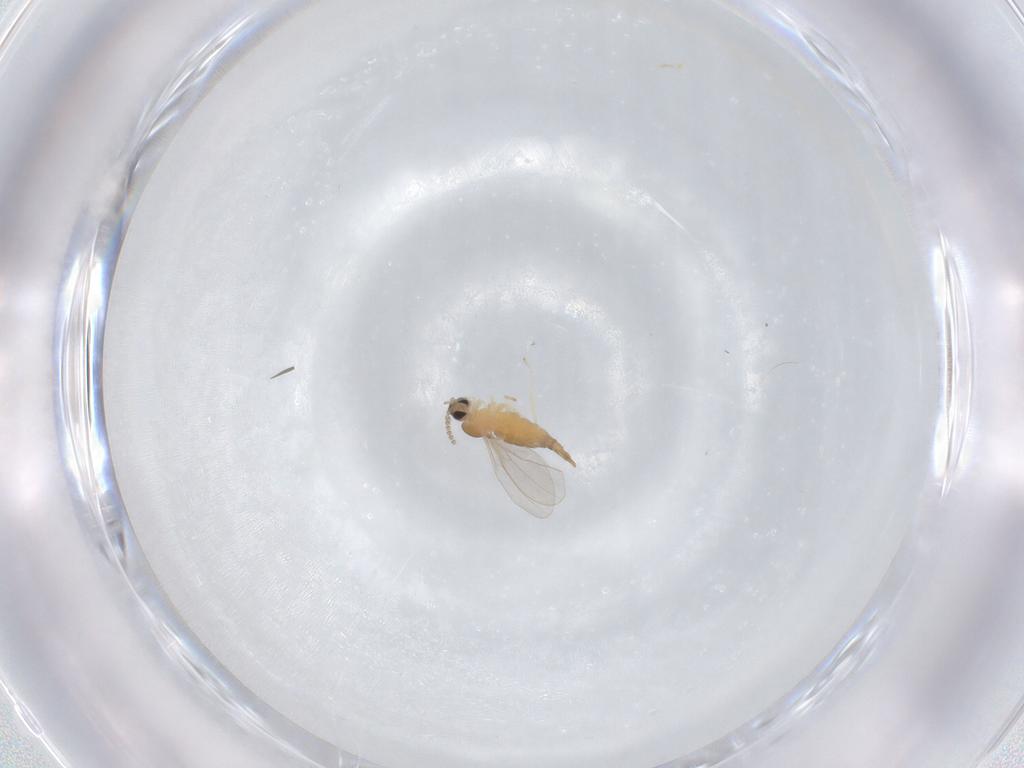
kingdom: Animalia
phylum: Arthropoda
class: Insecta
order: Diptera
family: Cecidomyiidae
